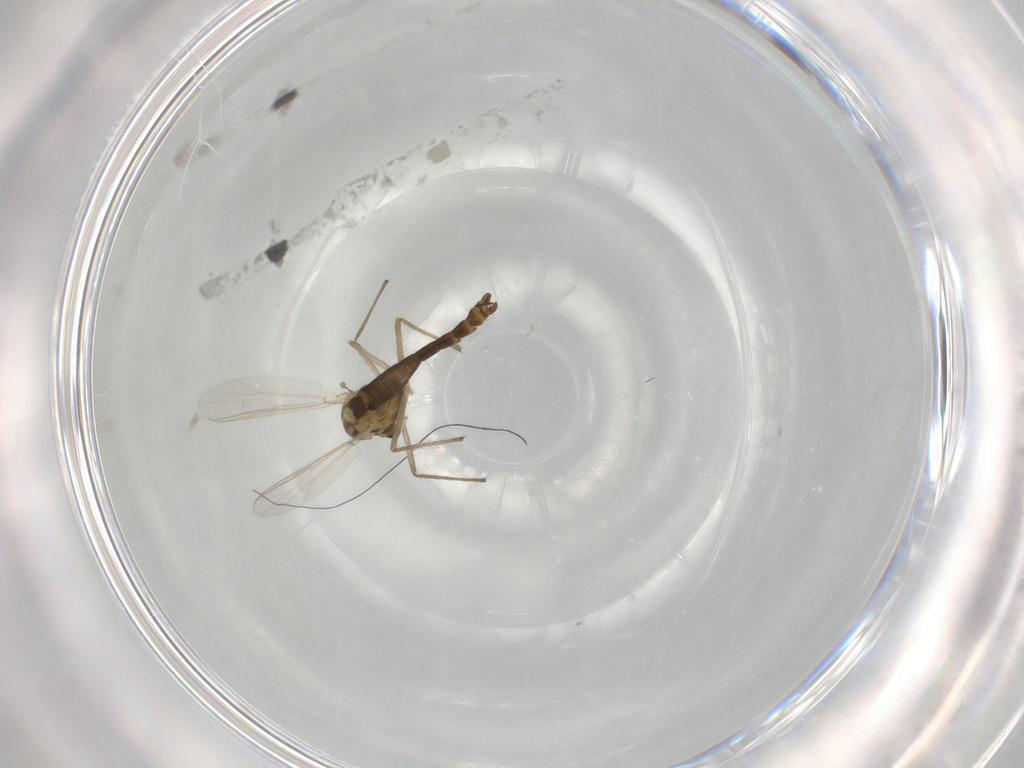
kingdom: Animalia
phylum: Arthropoda
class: Insecta
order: Diptera
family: Chironomidae
